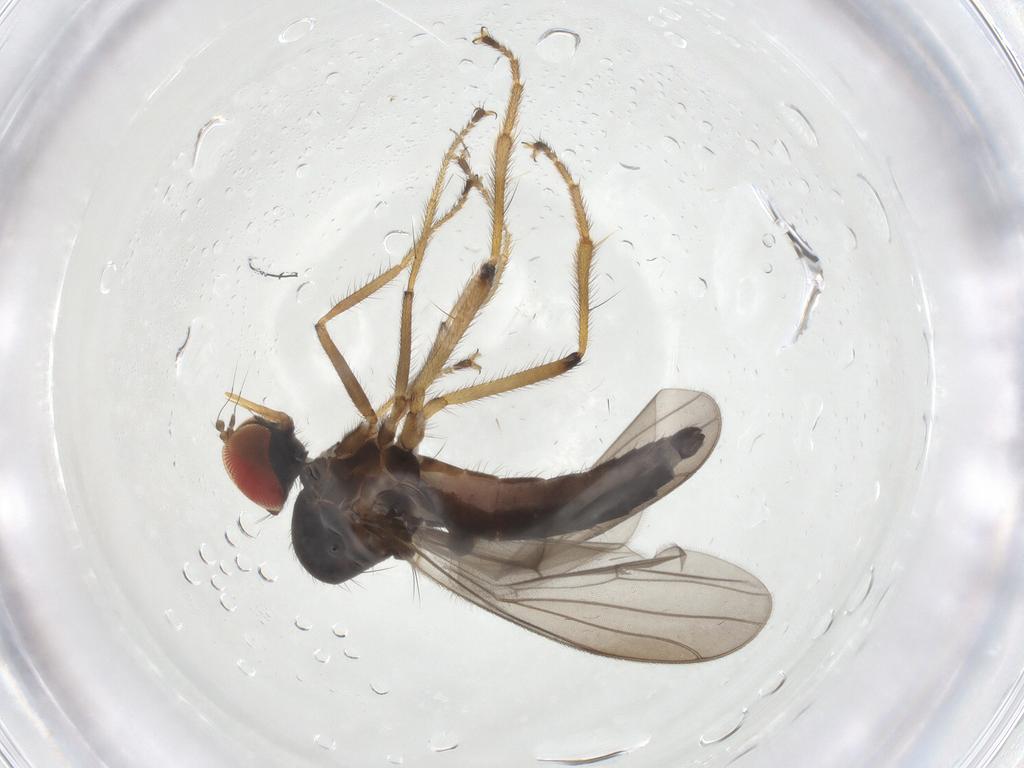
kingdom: Animalia
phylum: Arthropoda
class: Insecta
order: Diptera
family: Hybotidae
